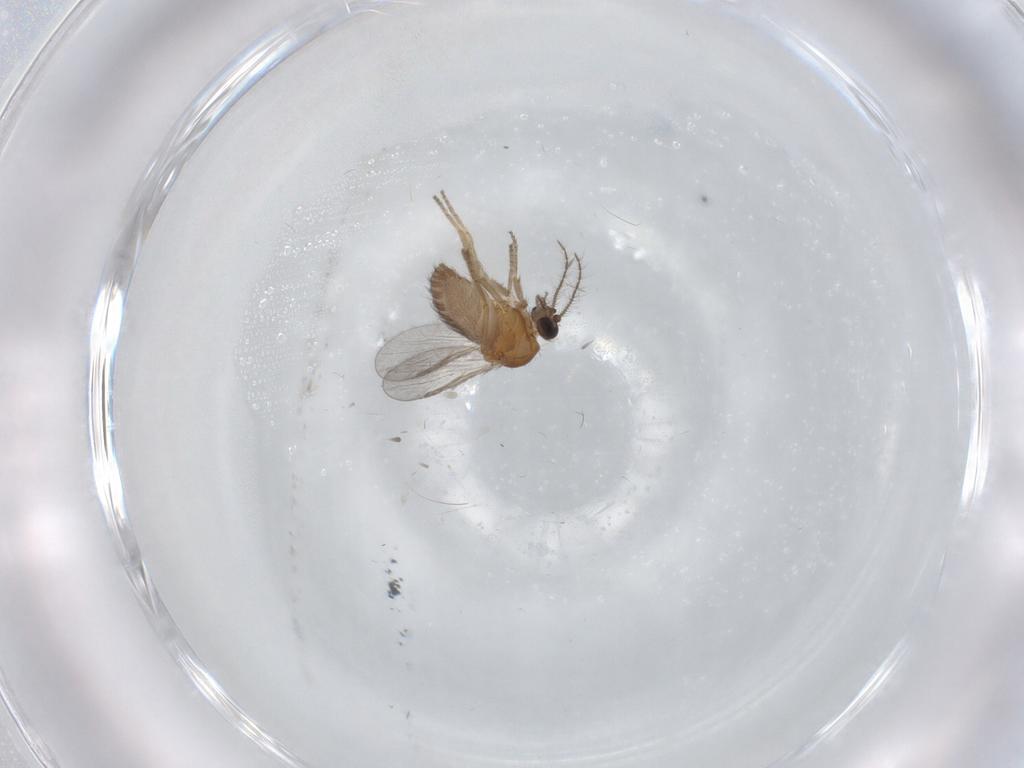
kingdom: Animalia
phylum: Arthropoda
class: Insecta
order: Diptera
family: Ceratopogonidae
